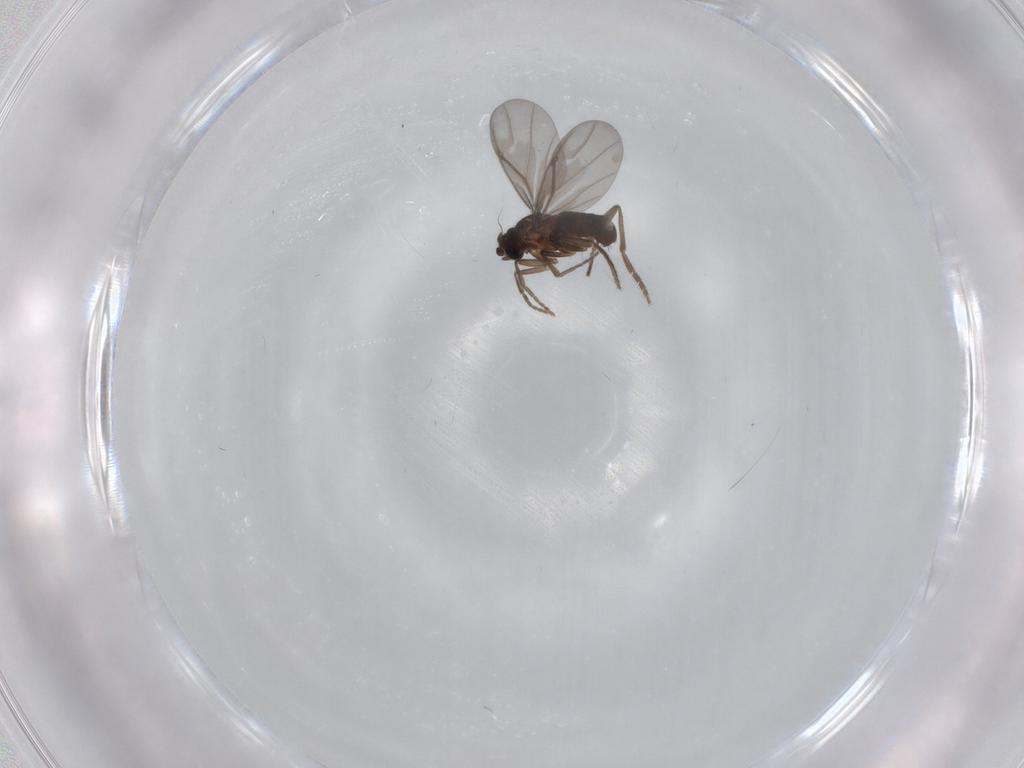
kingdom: Animalia
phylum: Arthropoda
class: Insecta
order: Diptera
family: Phoridae
